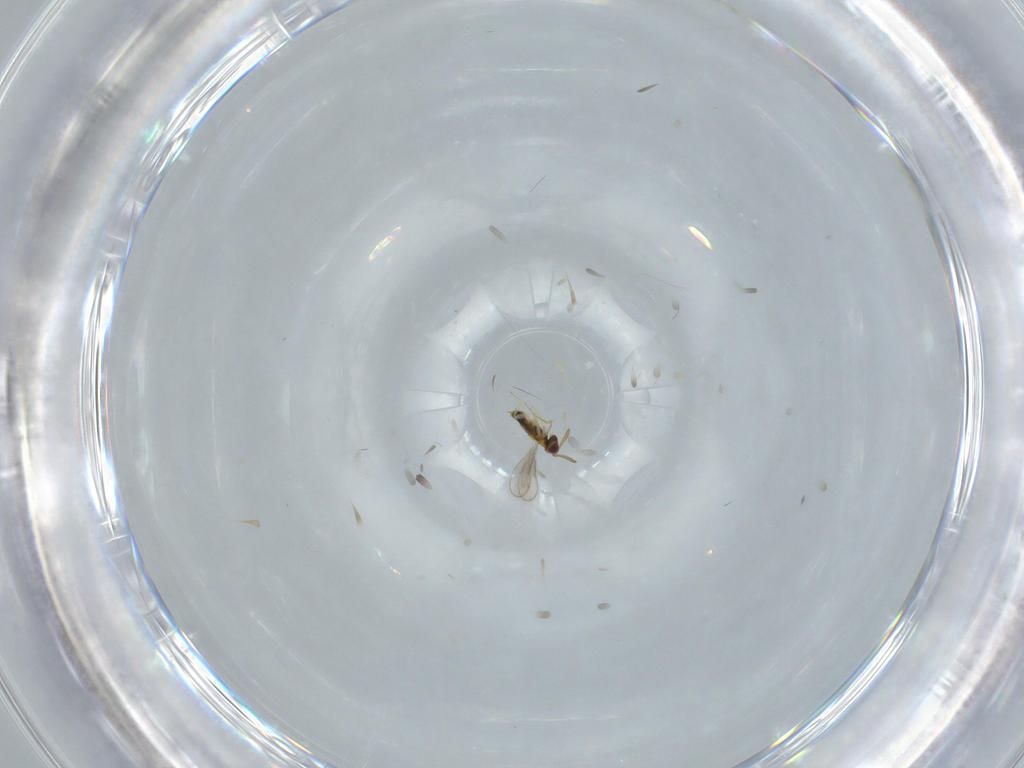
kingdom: Animalia
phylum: Arthropoda
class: Insecta
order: Hymenoptera
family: Aphelinidae
